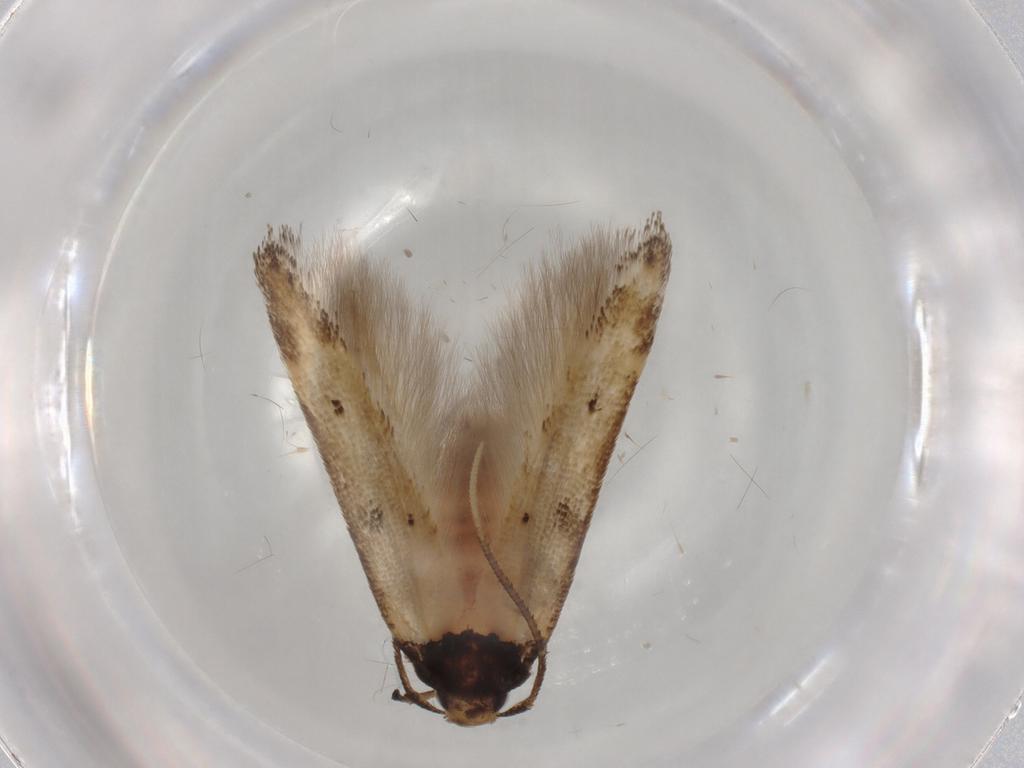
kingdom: Animalia
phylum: Arthropoda
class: Insecta
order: Lepidoptera
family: Cosmopterigidae
